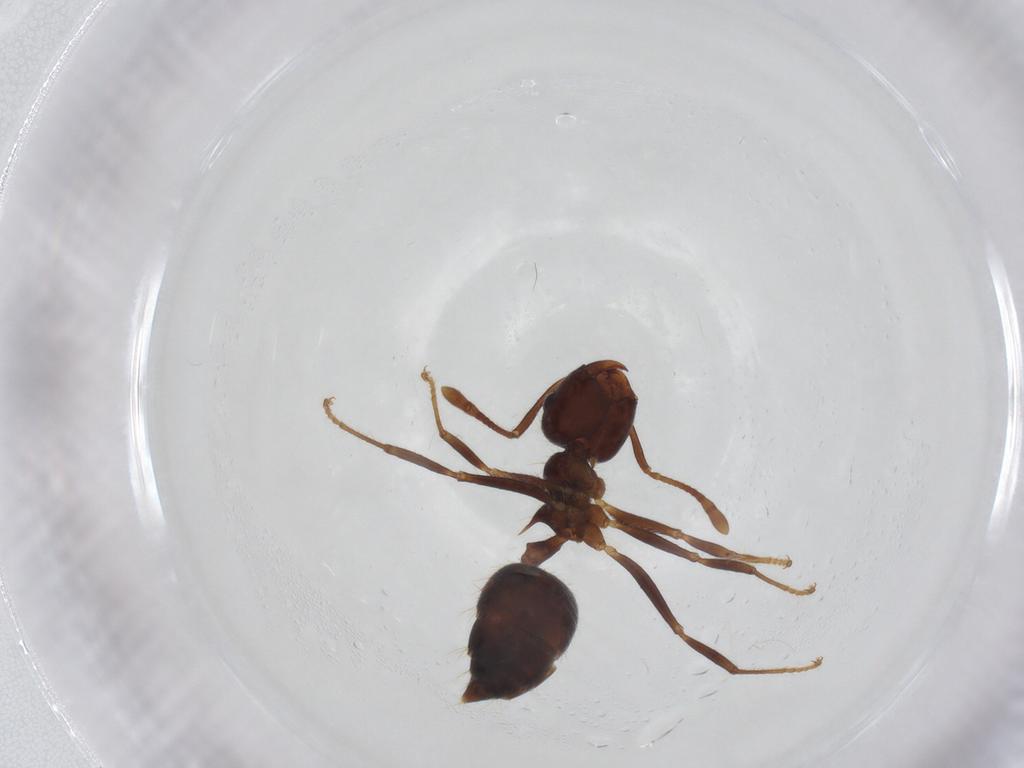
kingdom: Animalia
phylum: Arthropoda
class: Insecta
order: Hymenoptera
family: Formicidae
